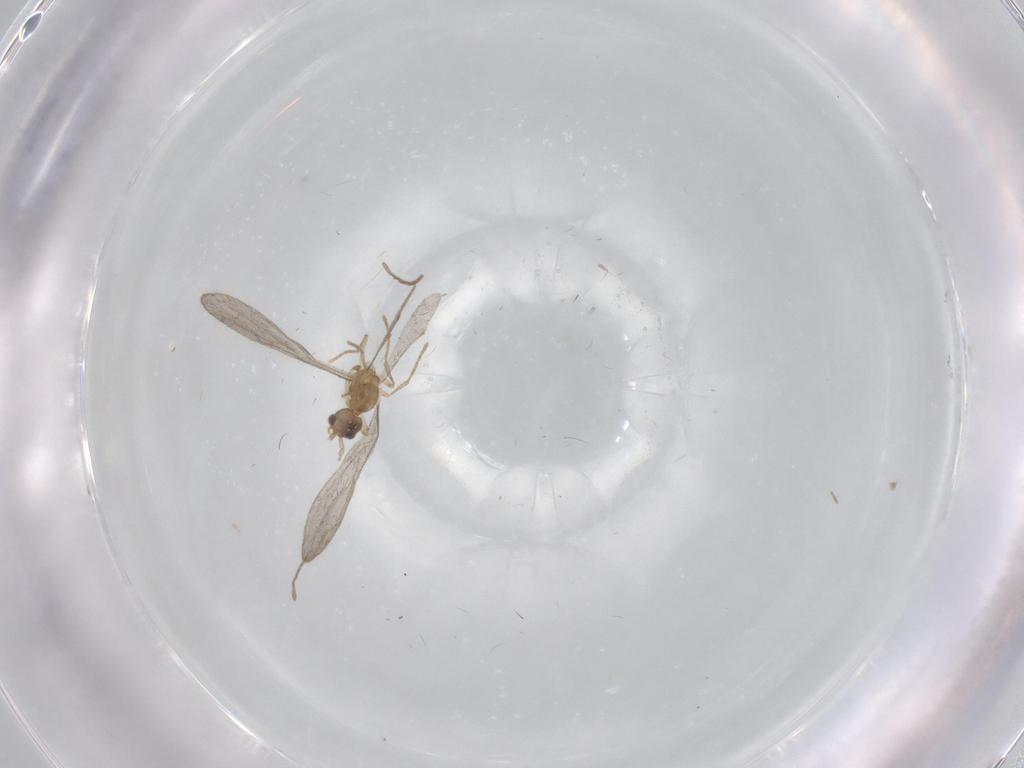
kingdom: Animalia
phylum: Arthropoda
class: Insecta
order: Hymenoptera
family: Formicidae
